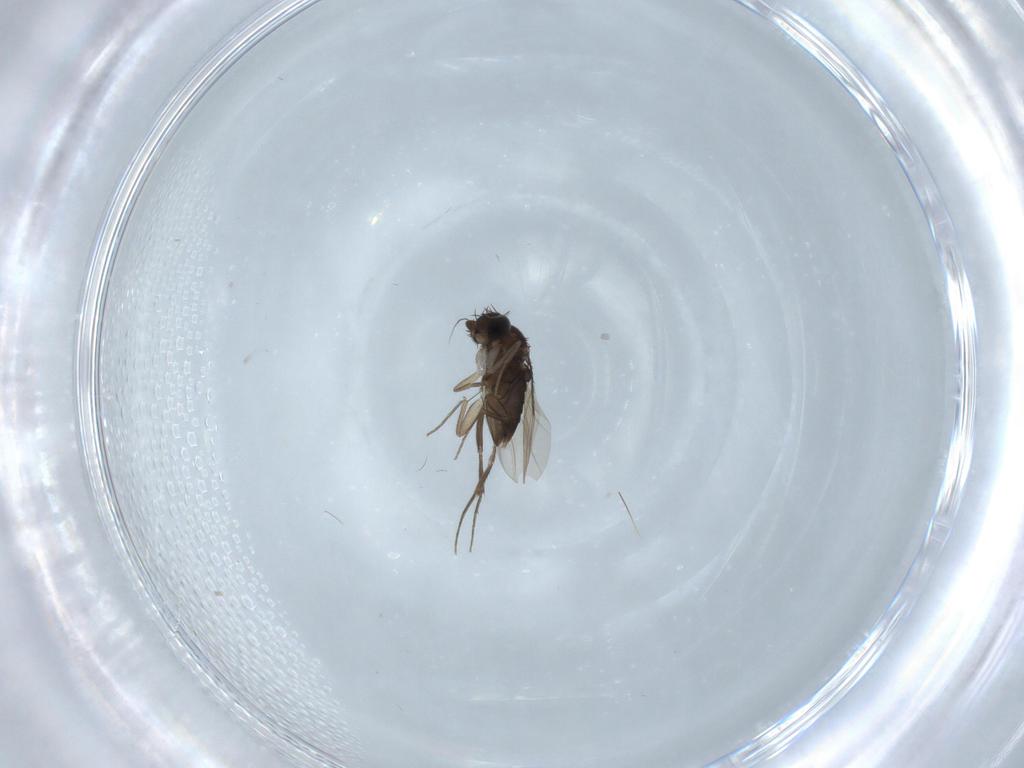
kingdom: Animalia
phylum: Arthropoda
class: Insecta
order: Diptera
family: Phoridae
